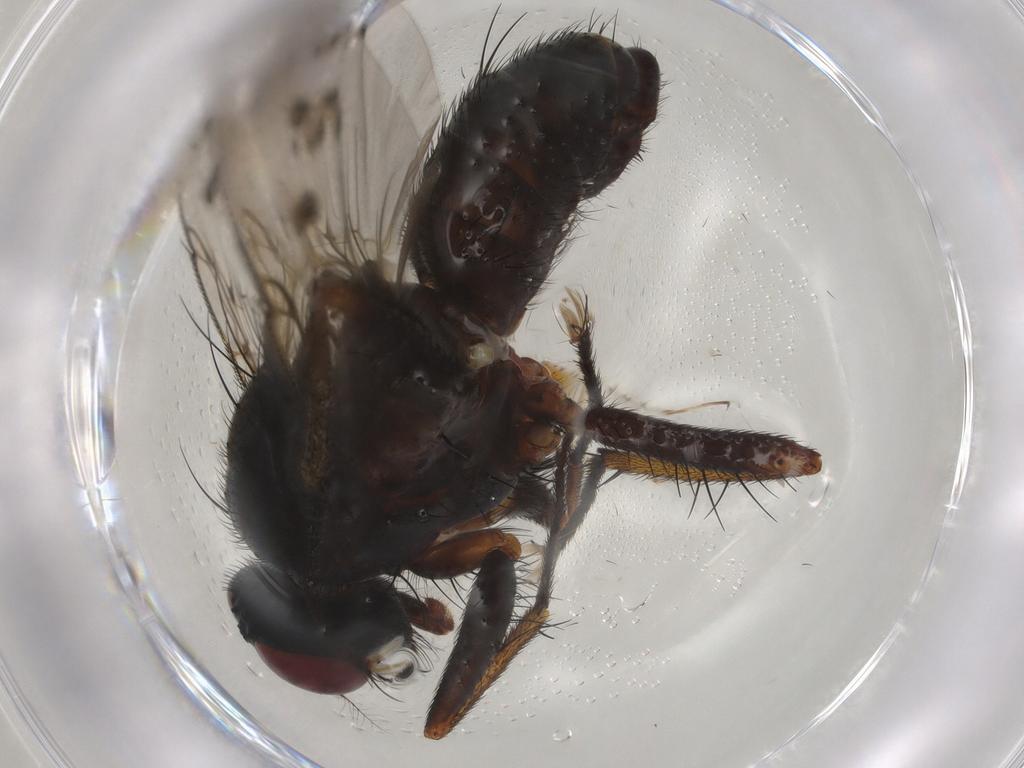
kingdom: Animalia
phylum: Arthropoda
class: Insecta
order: Diptera
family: Muscidae
